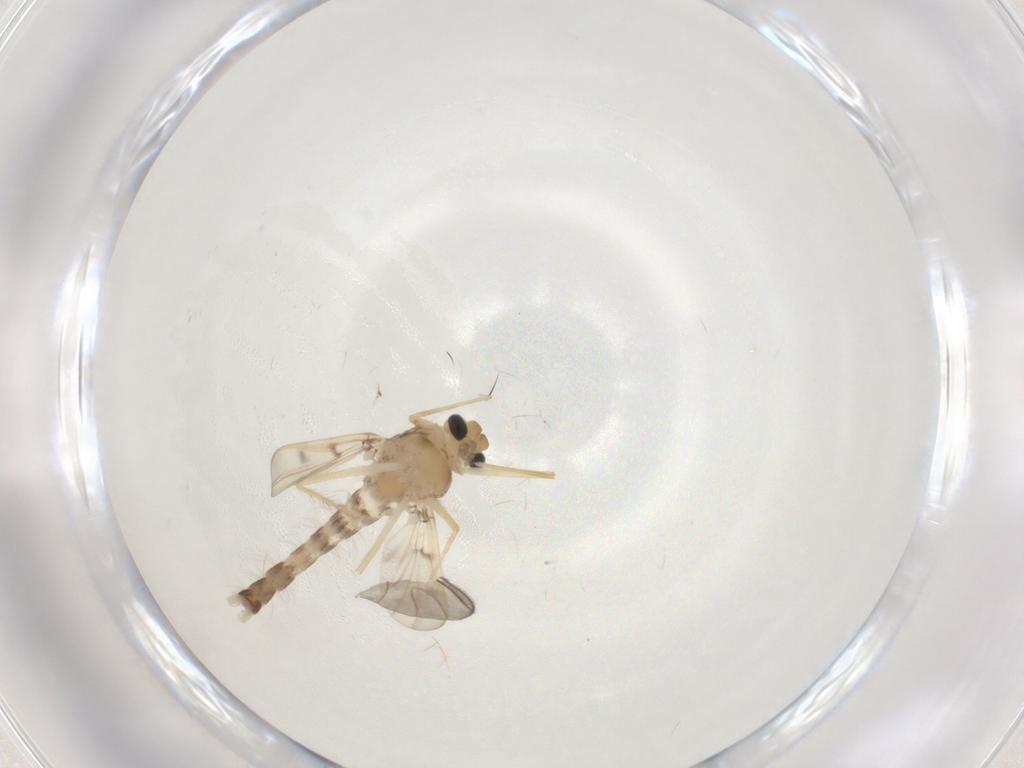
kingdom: Animalia
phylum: Arthropoda
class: Insecta
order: Diptera
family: Chironomidae
